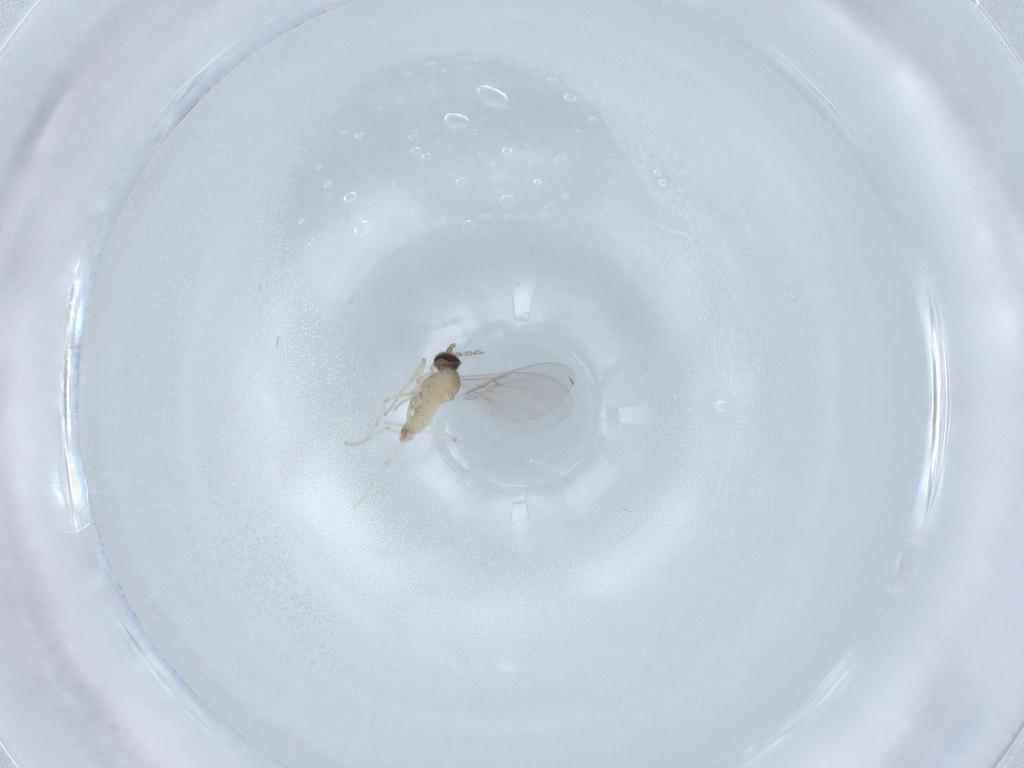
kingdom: Animalia
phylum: Arthropoda
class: Insecta
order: Diptera
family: Cecidomyiidae
